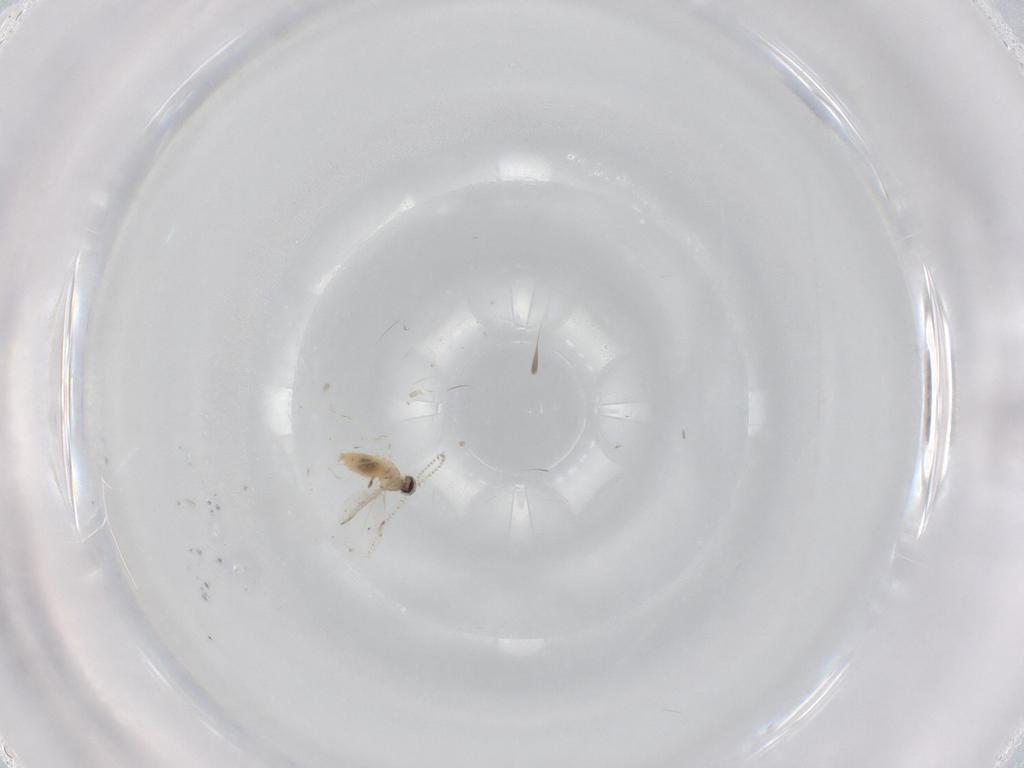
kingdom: Animalia
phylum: Arthropoda
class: Insecta
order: Diptera
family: Cecidomyiidae
